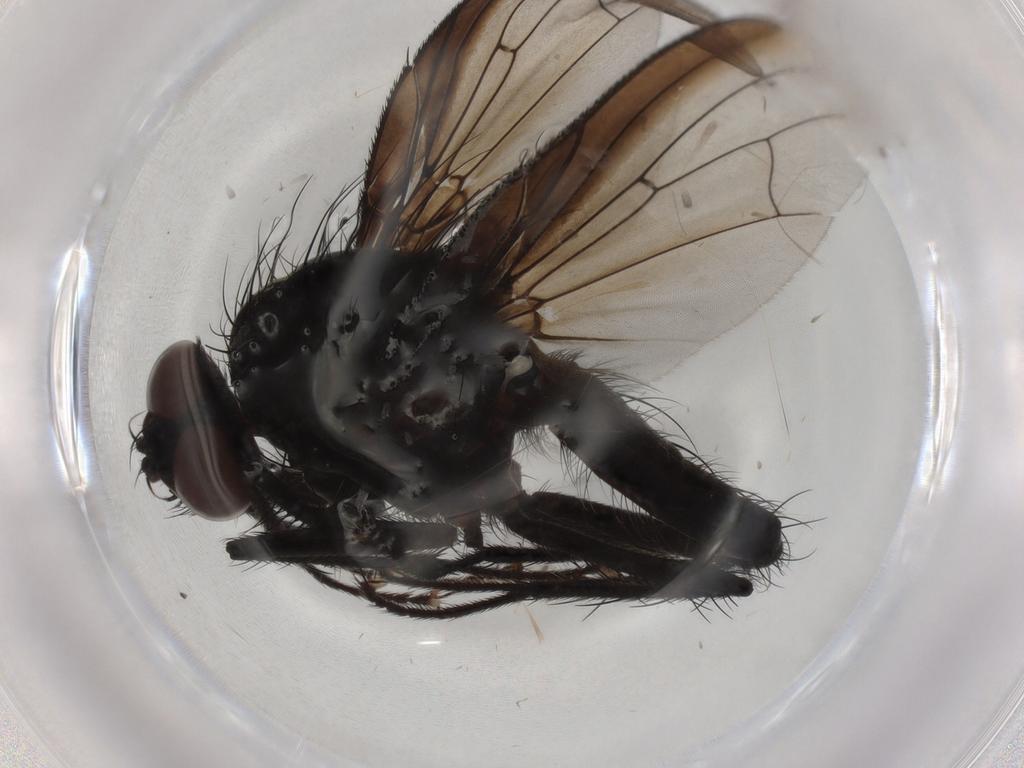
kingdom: Animalia
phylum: Arthropoda
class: Insecta
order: Diptera
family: Anthomyiidae
